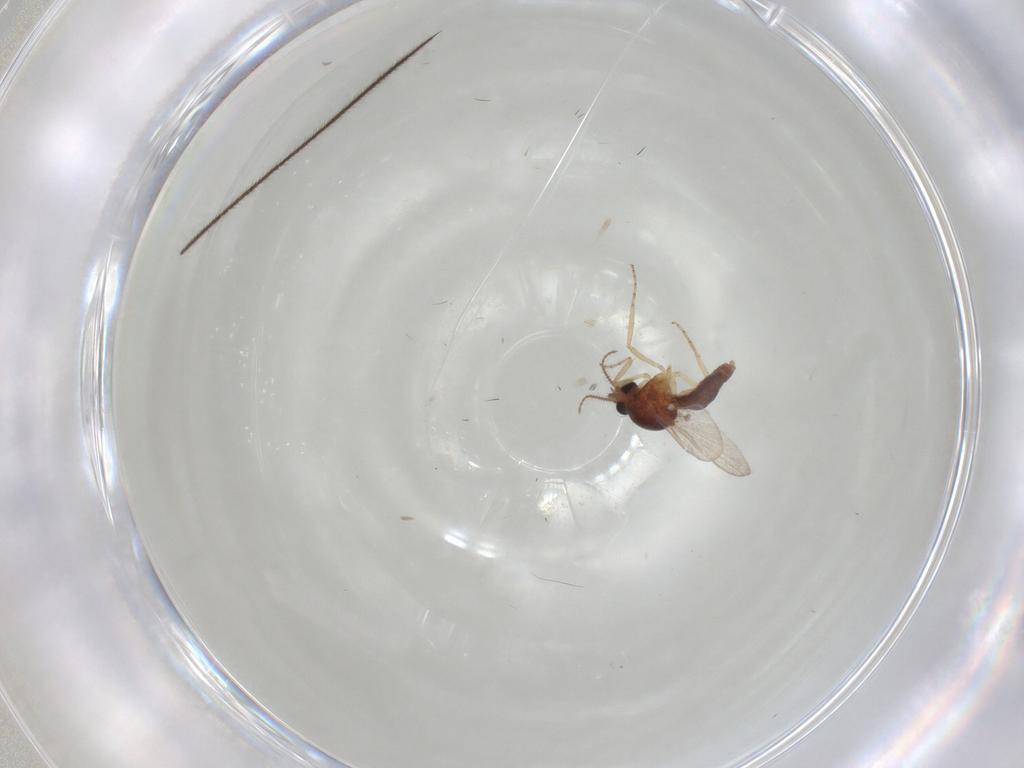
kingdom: Animalia
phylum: Arthropoda
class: Insecta
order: Diptera
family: Ceratopogonidae
